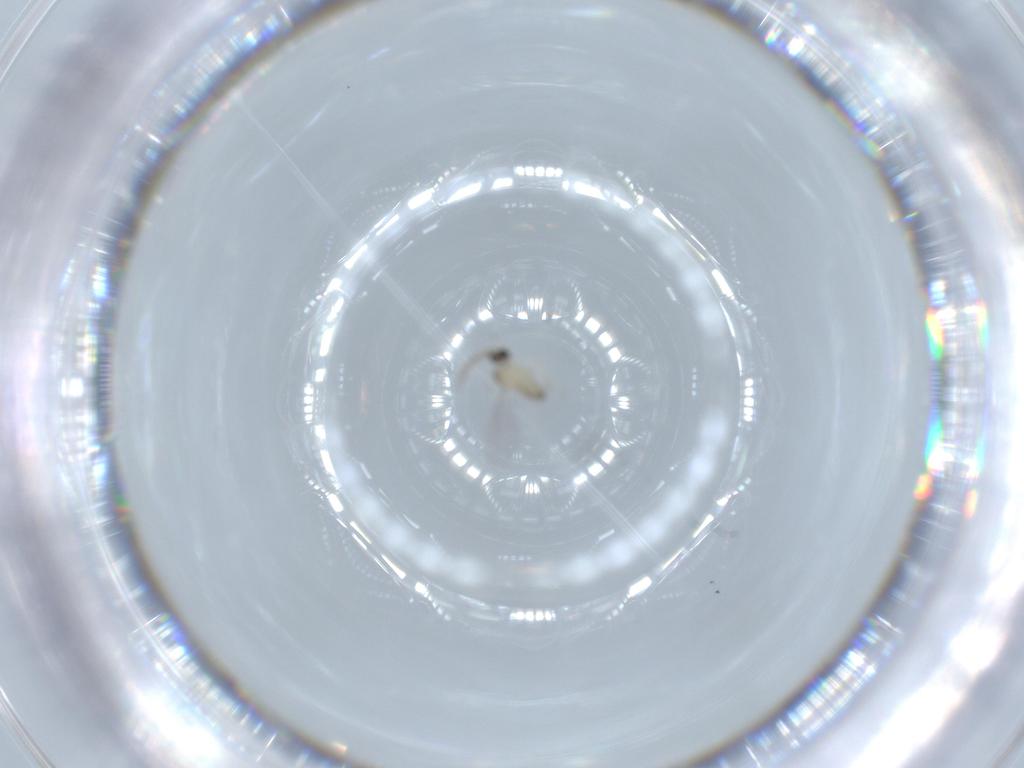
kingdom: Animalia
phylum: Arthropoda
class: Insecta
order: Diptera
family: Cecidomyiidae
